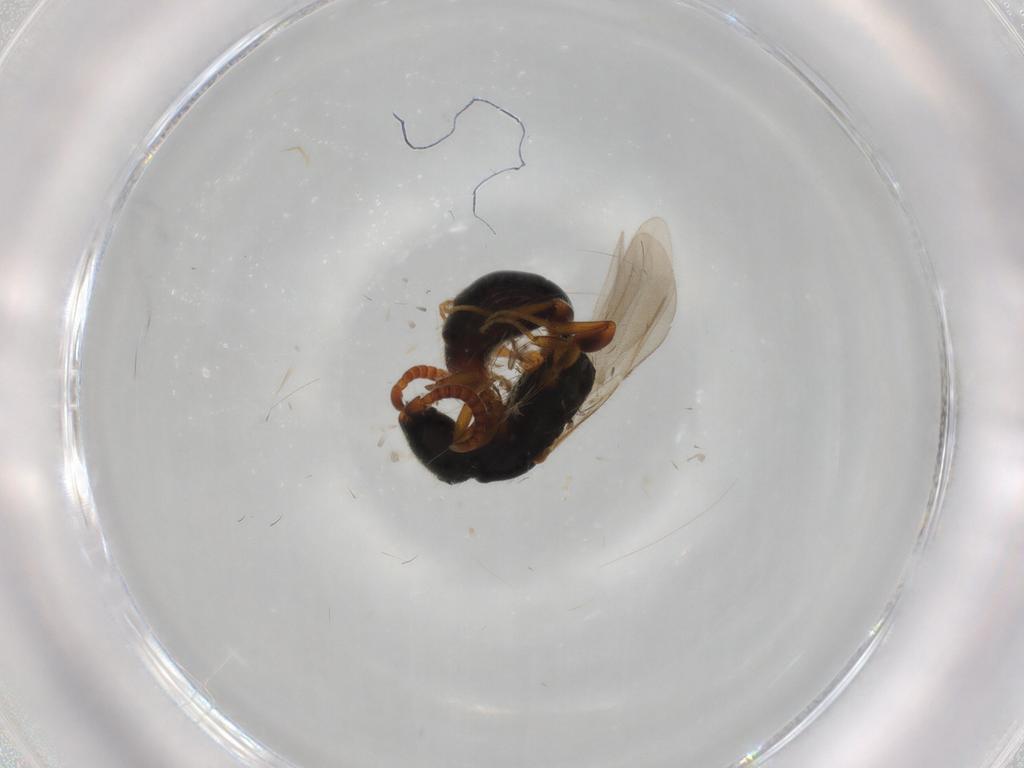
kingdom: Animalia
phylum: Arthropoda
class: Insecta
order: Hymenoptera
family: Bethylidae
